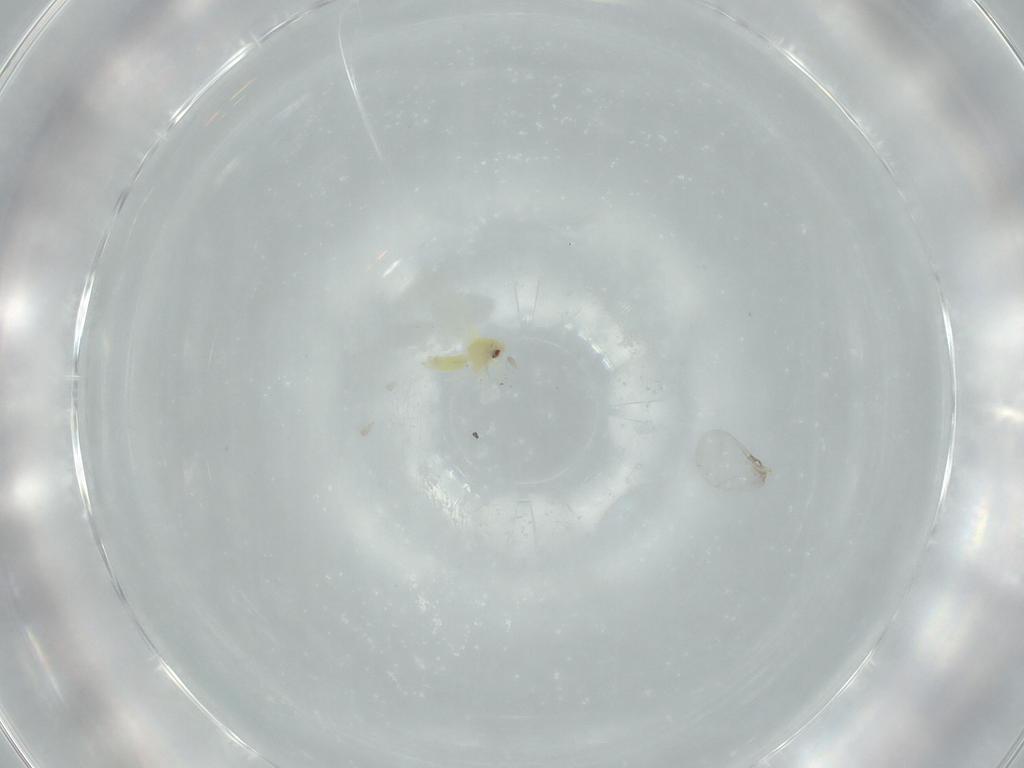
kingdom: Animalia
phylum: Arthropoda
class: Insecta
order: Hemiptera
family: Aleyrodidae
